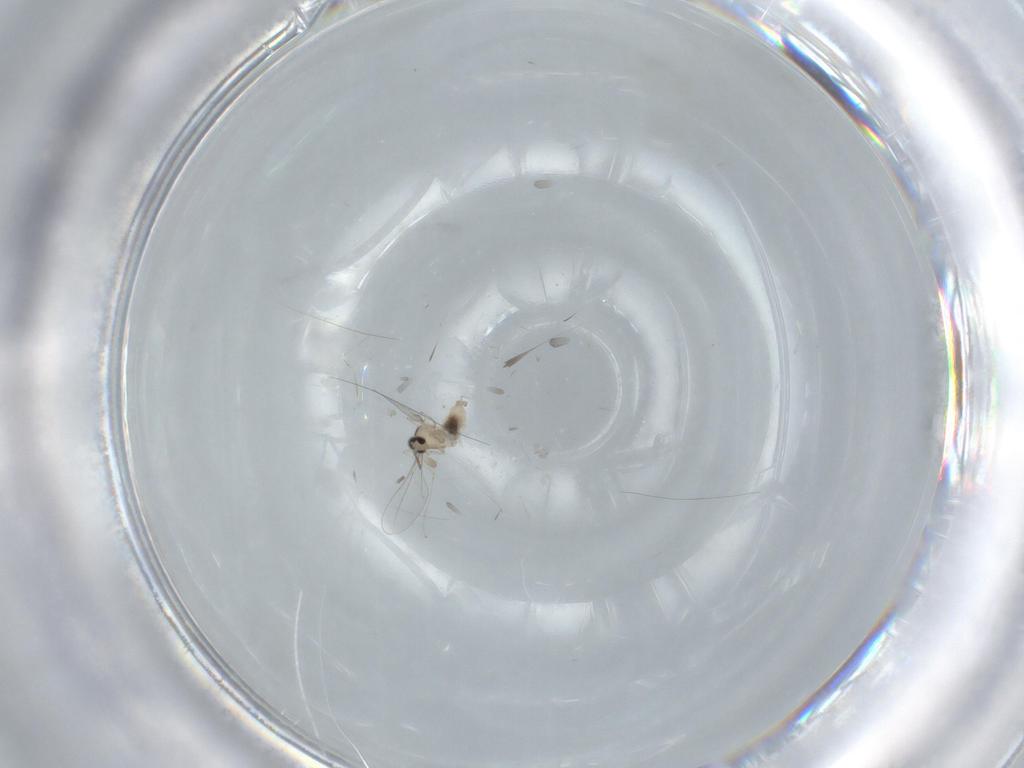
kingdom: Animalia
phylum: Arthropoda
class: Insecta
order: Diptera
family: Cecidomyiidae
